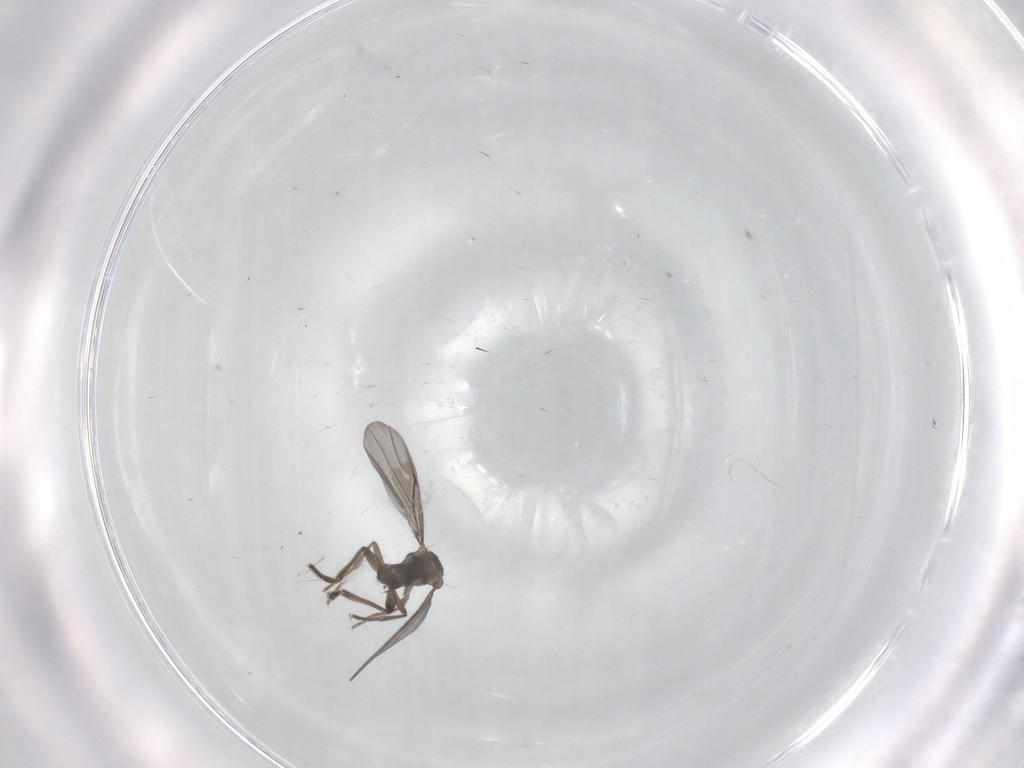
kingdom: Animalia
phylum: Arthropoda
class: Insecta
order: Diptera
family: Phoridae
